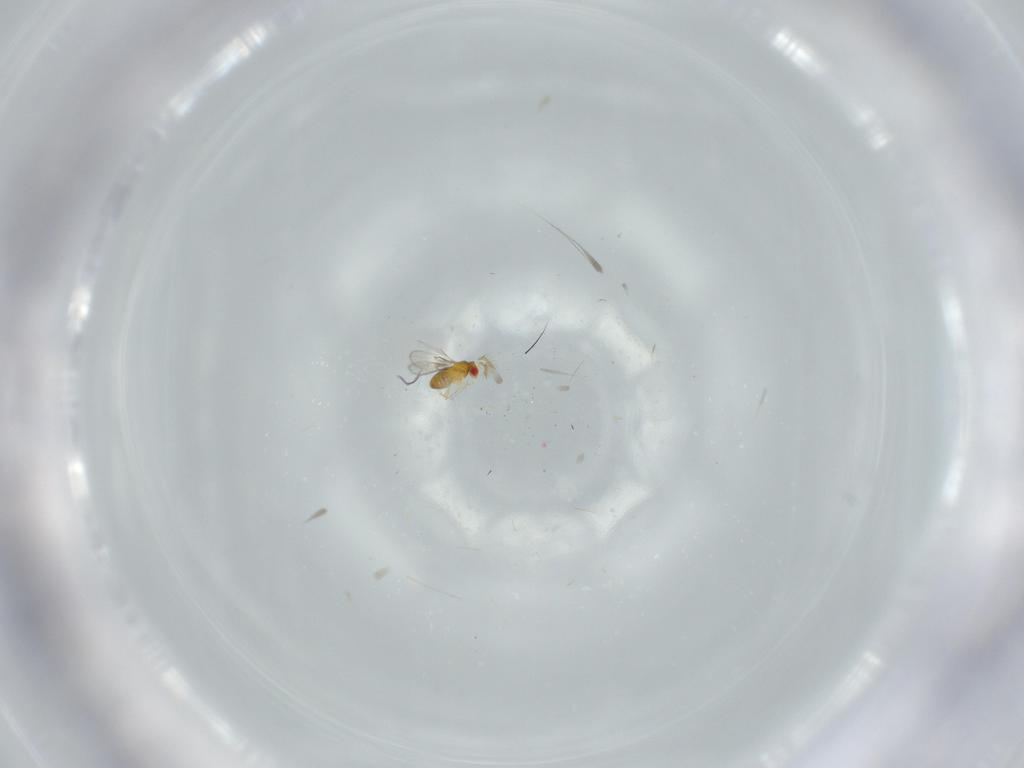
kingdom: Animalia
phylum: Arthropoda
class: Insecta
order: Hymenoptera
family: Trichogrammatidae
